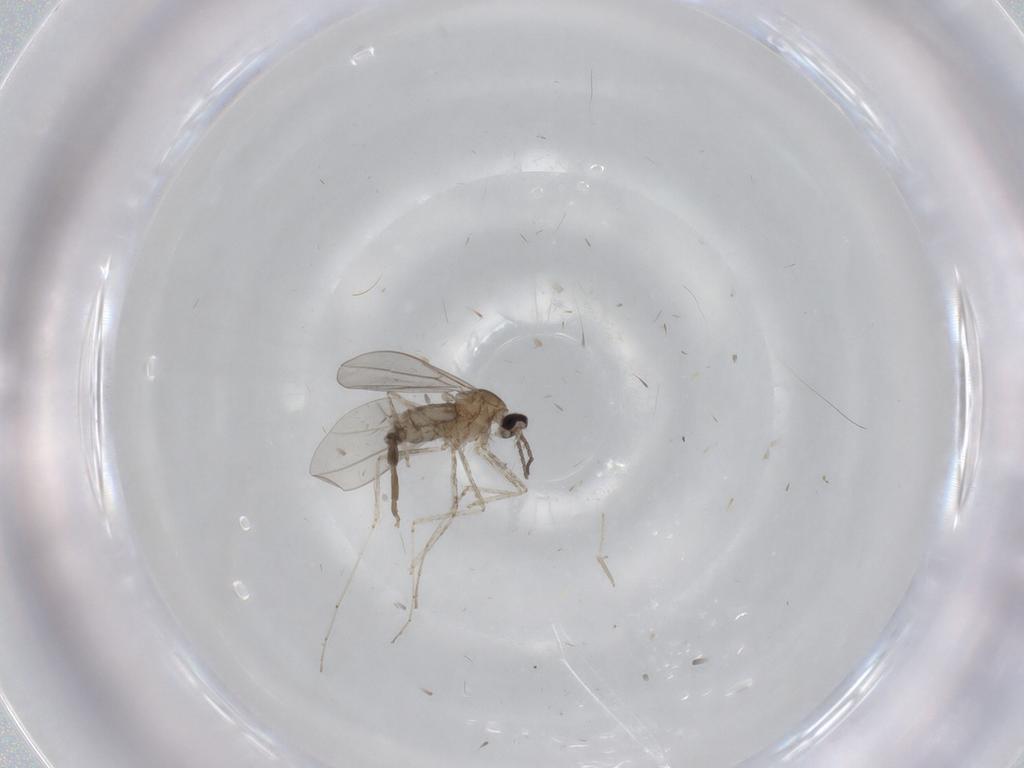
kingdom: Animalia
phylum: Arthropoda
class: Insecta
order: Diptera
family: Cecidomyiidae
